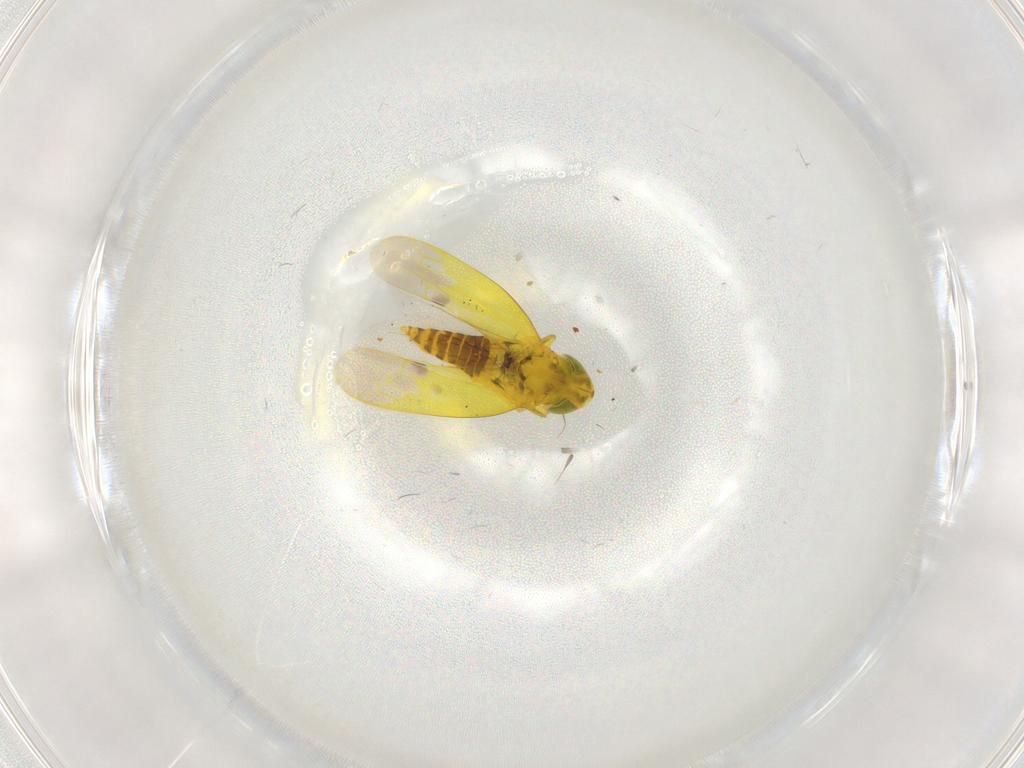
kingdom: Animalia
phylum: Arthropoda
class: Insecta
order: Hemiptera
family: Cicadellidae
